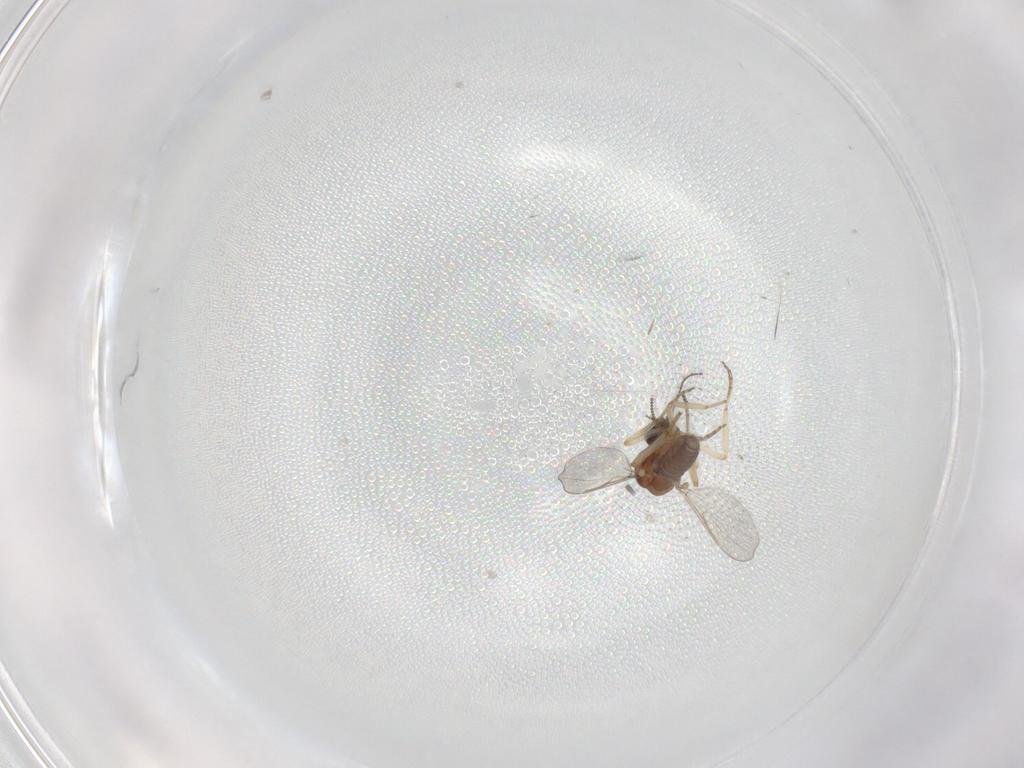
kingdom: Animalia
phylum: Arthropoda
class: Insecta
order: Diptera
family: Ceratopogonidae
